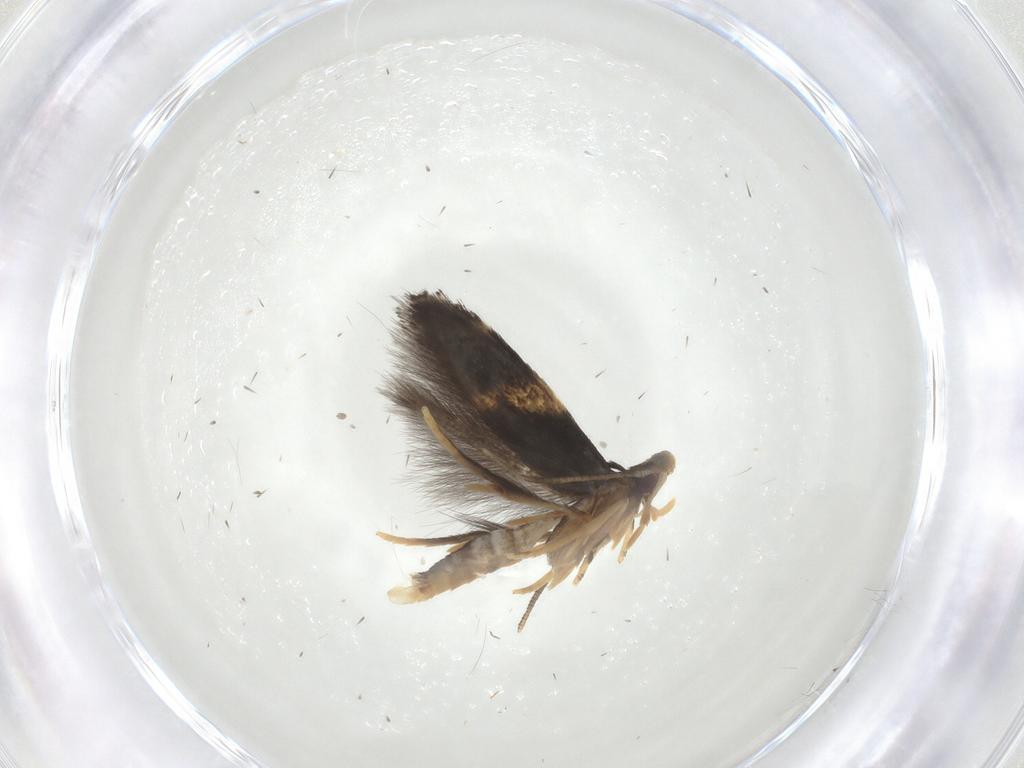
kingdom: Animalia
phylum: Arthropoda
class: Insecta
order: Lepidoptera
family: Gelechiidae
